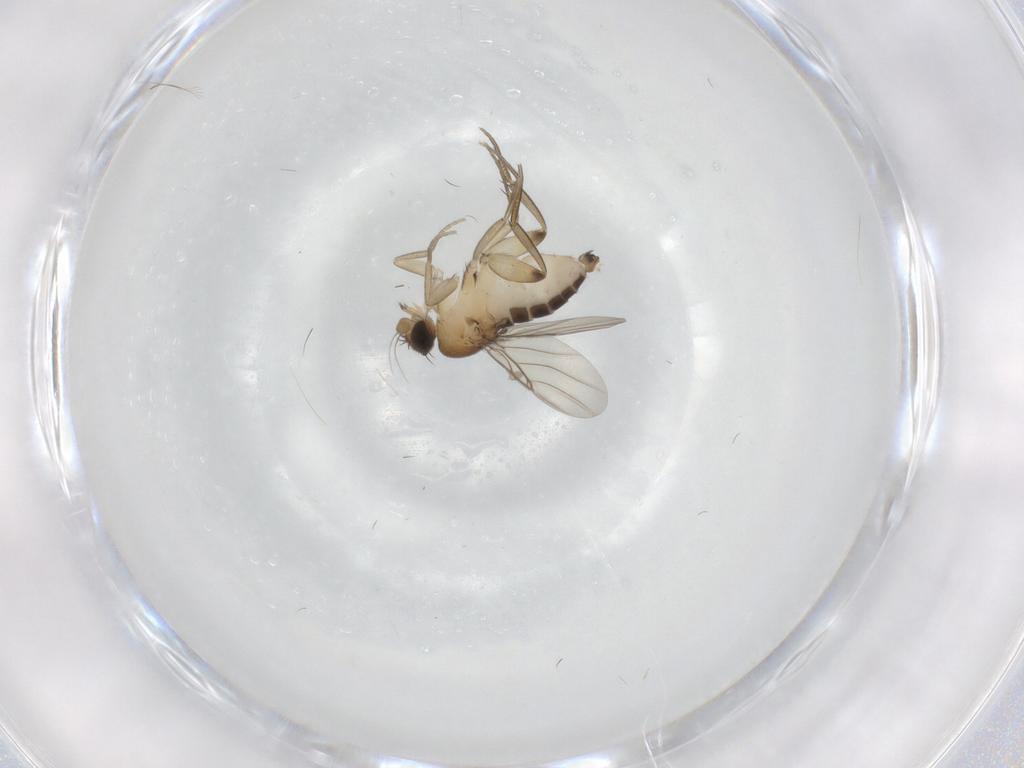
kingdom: Animalia
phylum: Arthropoda
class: Insecta
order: Diptera
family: Phoridae
